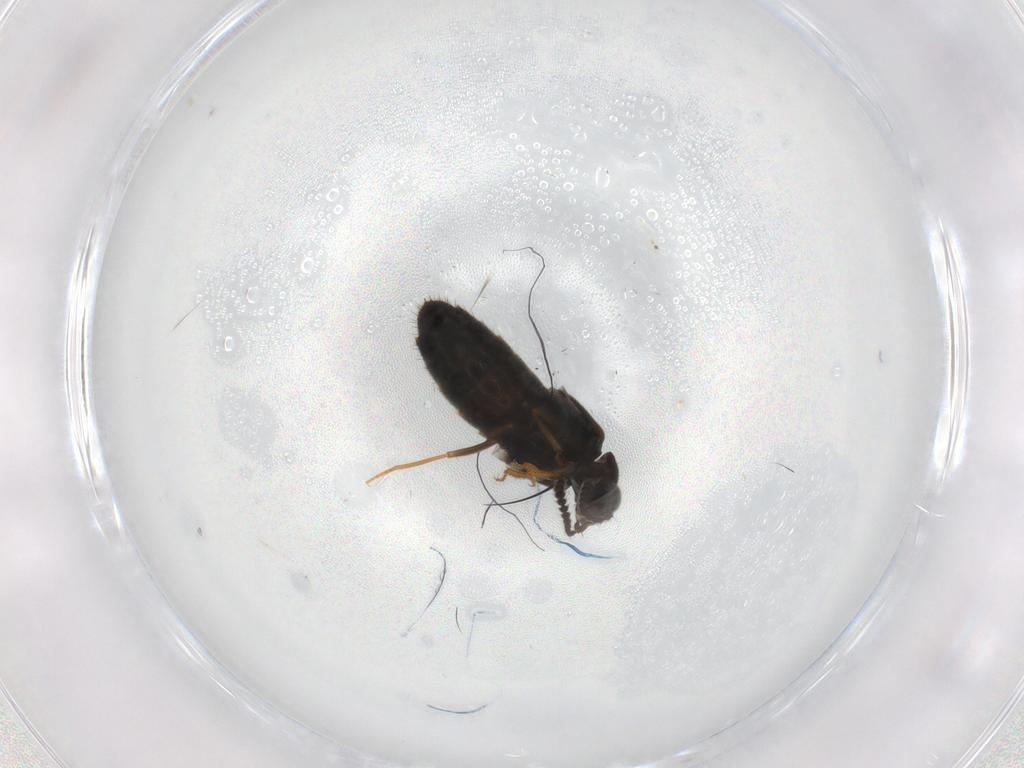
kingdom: Animalia
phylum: Arthropoda
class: Insecta
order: Coleoptera
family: Staphylinidae
